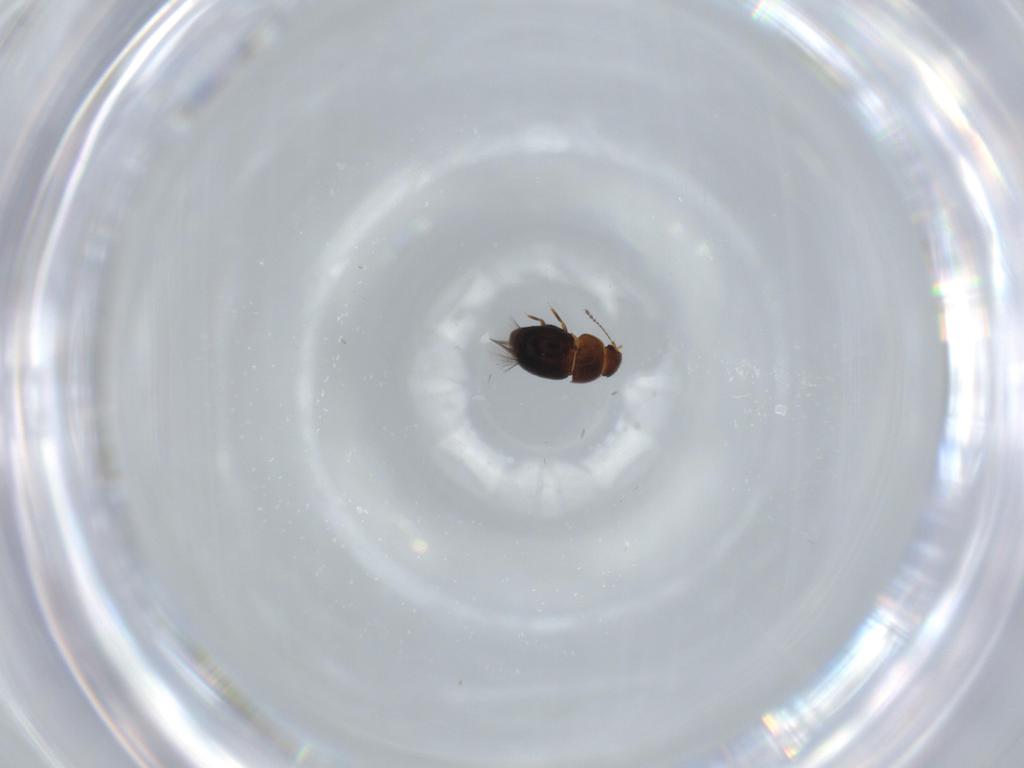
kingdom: Animalia
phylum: Arthropoda
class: Insecta
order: Coleoptera
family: Ptiliidae
